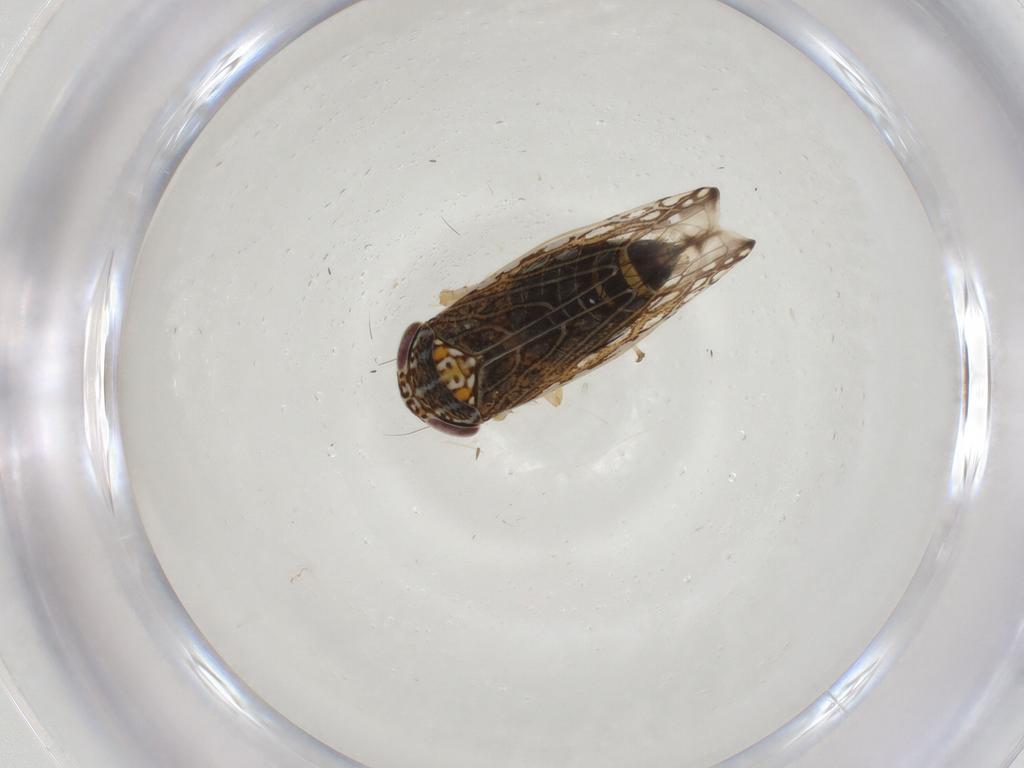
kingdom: Animalia
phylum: Arthropoda
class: Insecta
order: Hemiptera
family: Cicadellidae
